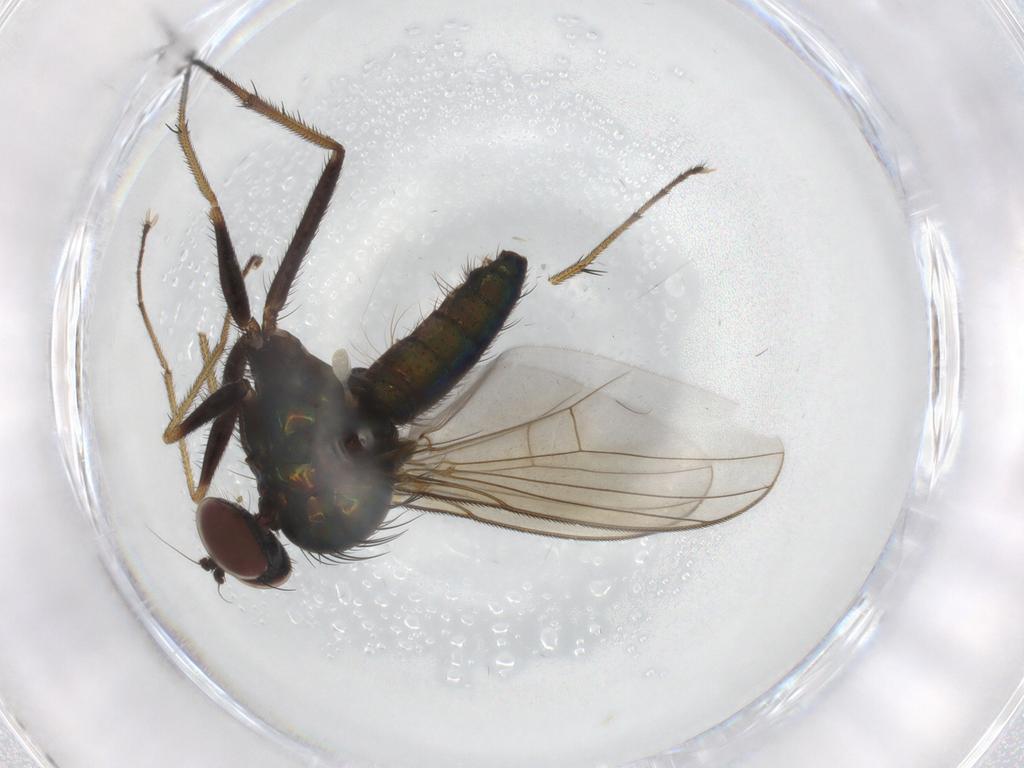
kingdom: Animalia
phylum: Arthropoda
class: Insecta
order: Diptera
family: Dolichopodidae
